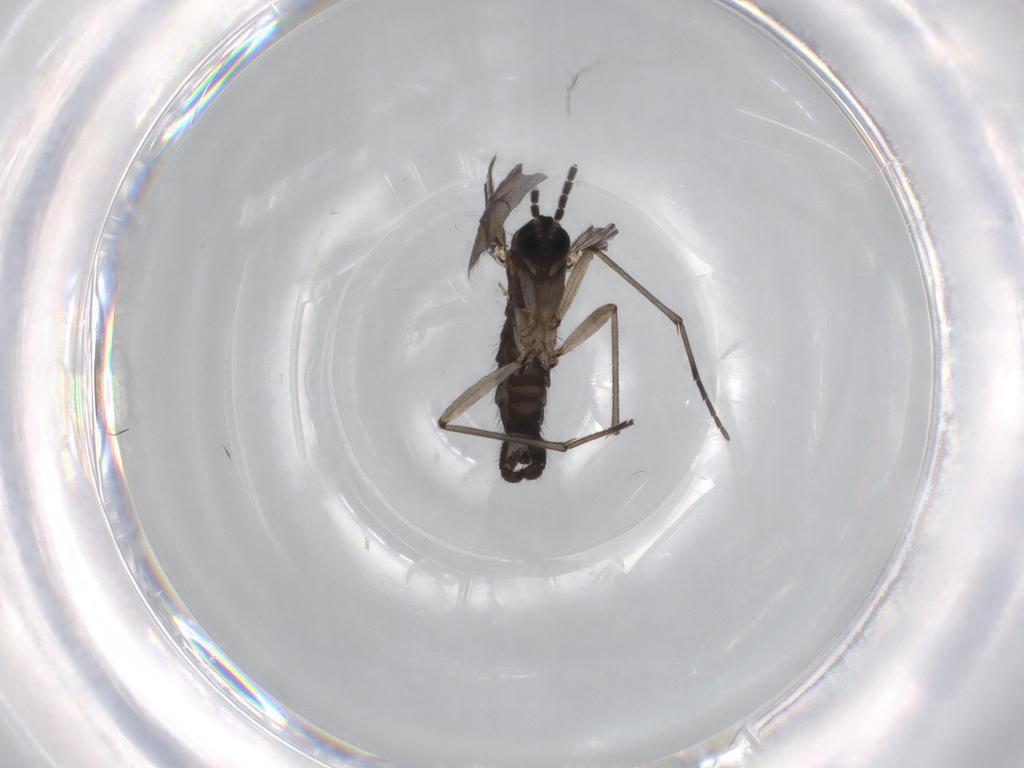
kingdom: Animalia
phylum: Arthropoda
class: Insecta
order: Diptera
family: Sciaridae
